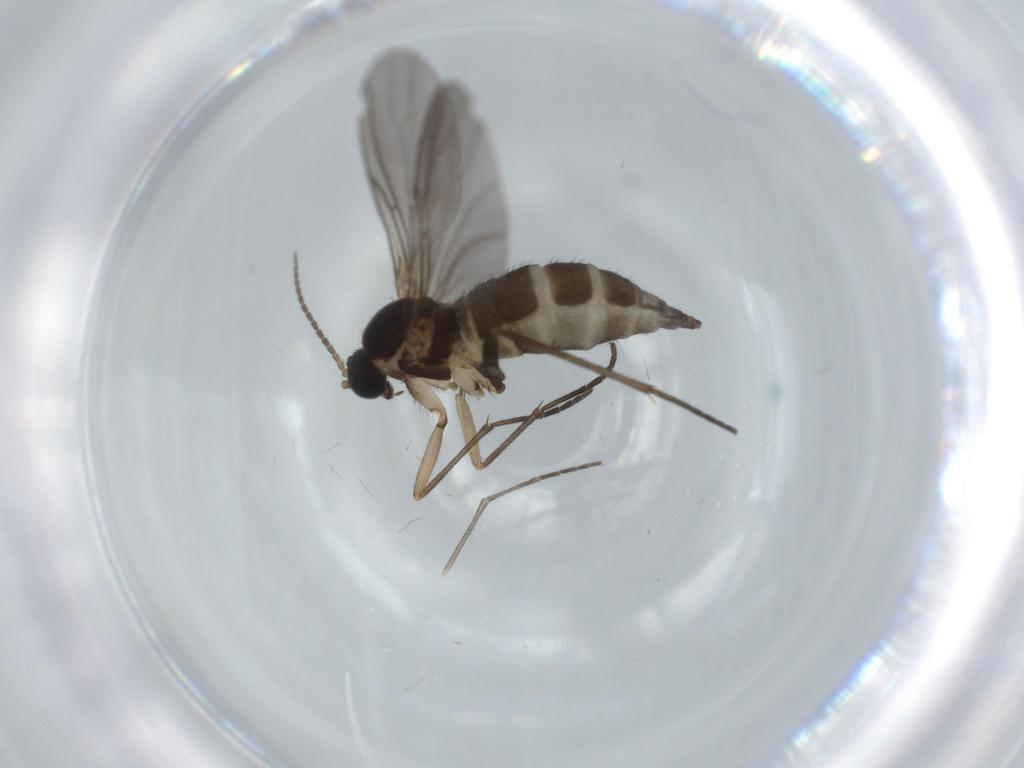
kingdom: Animalia
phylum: Arthropoda
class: Insecta
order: Diptera
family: Sciaridae
